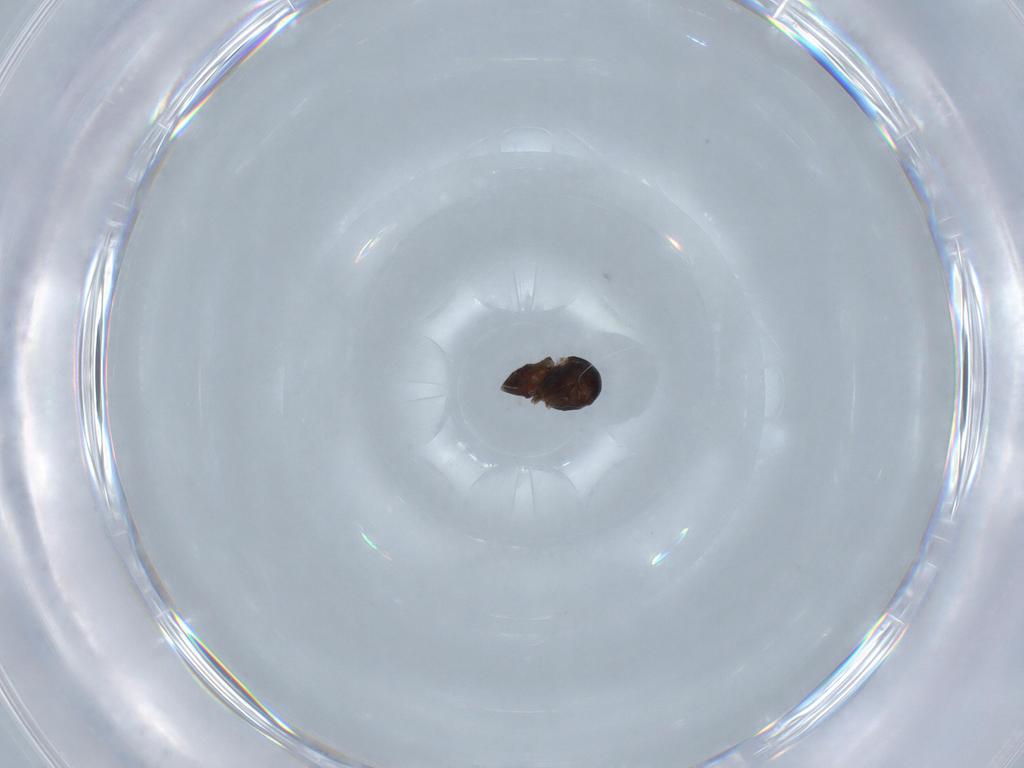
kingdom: Animalia
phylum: Arthropoda
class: Insecta
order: Diptera
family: Ephydridae
